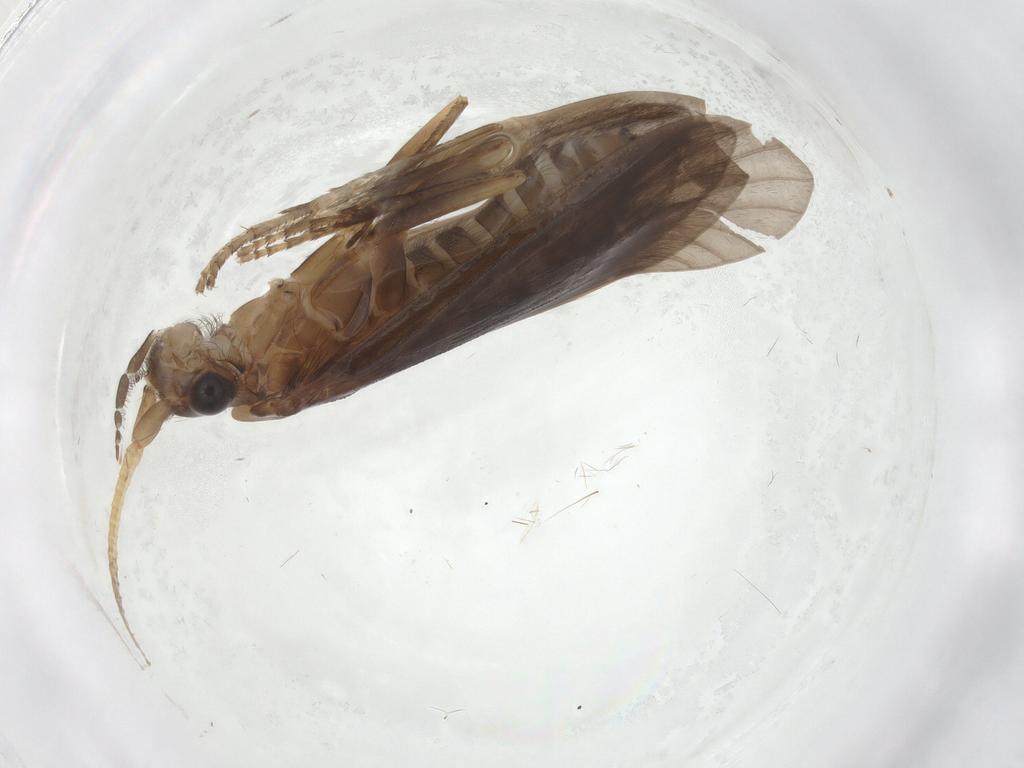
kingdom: Animalia
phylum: Arthropoda
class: Insecta
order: Trichoptera
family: Helicopsychidae
